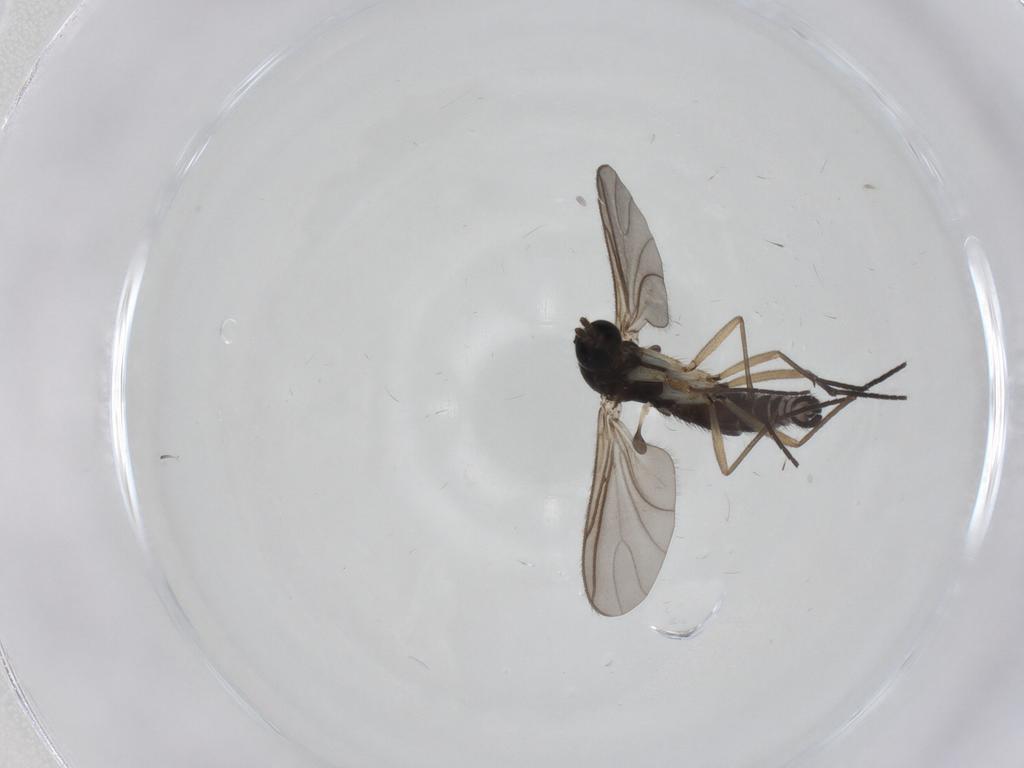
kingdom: Animalia
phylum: Arthropoda
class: Insecta
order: Diptera
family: Sciaridae
